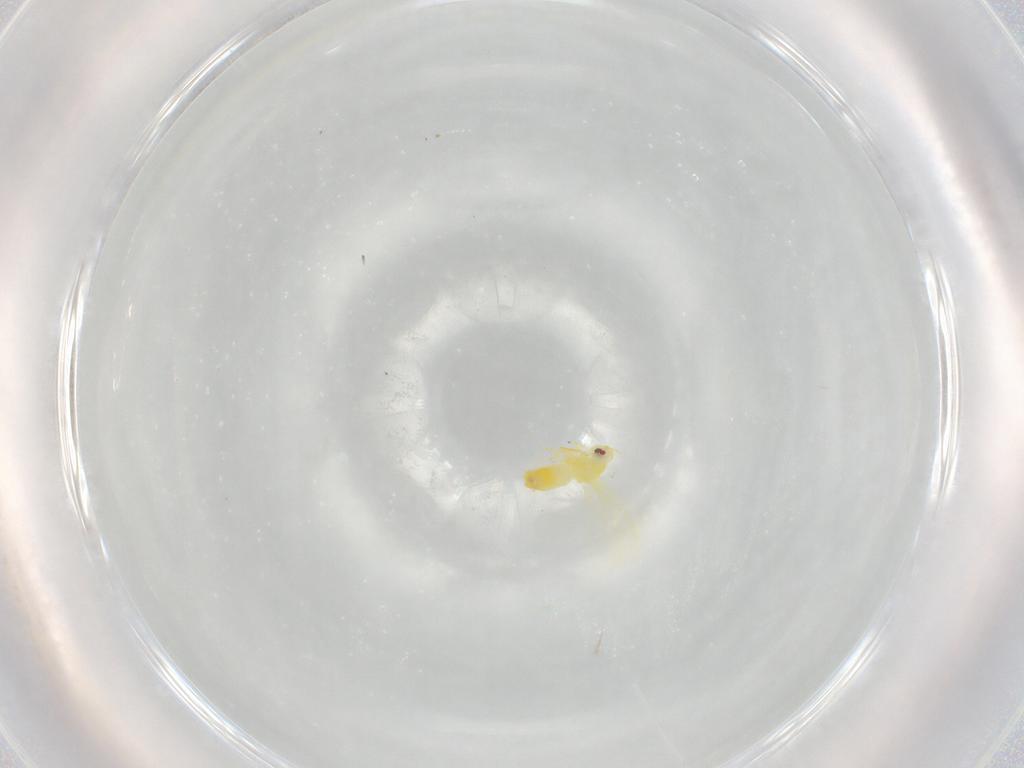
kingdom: Animalia
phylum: Arthropoda
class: Insecta
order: Hemiptera
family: Aleyrodidae
